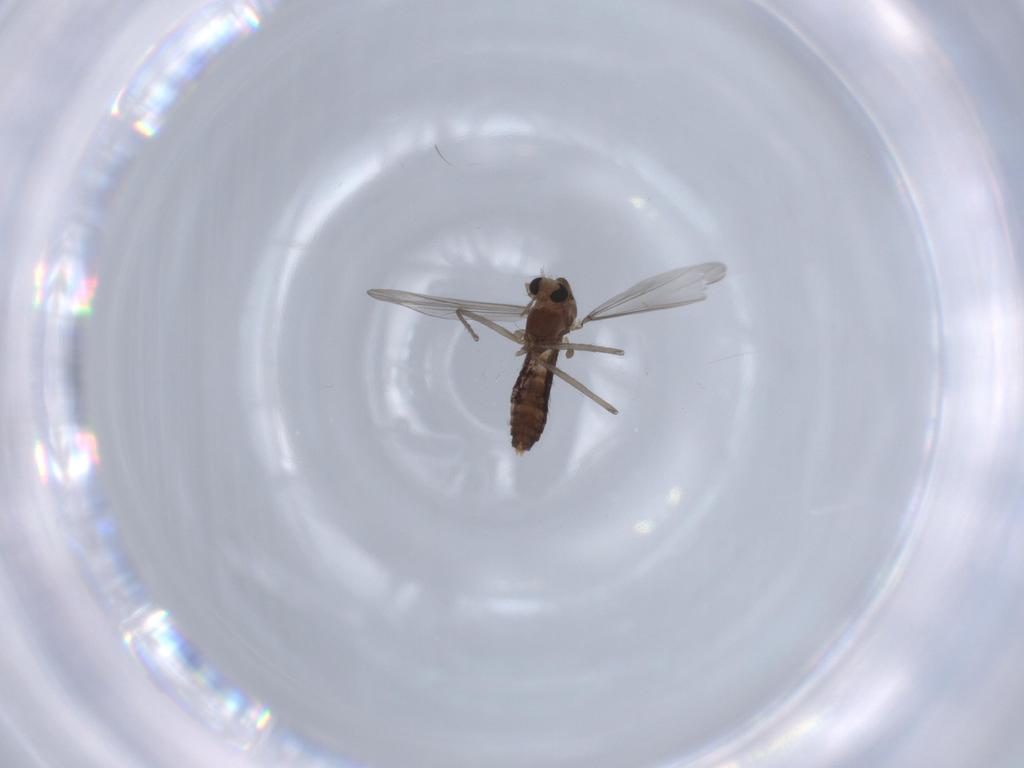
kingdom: Animalia
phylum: Arthropoda
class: Insecta
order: Diptera
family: Chironomidae
